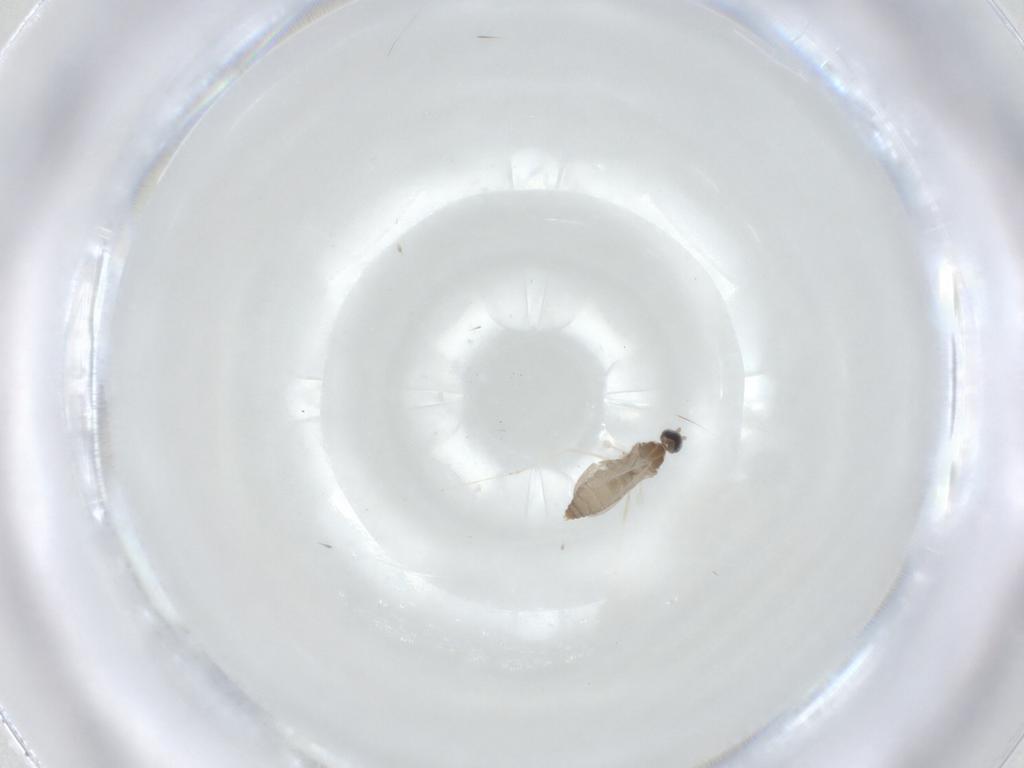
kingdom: Animalia
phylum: Arthropoda
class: Insecta
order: Diptera
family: Cecidomyiidae
